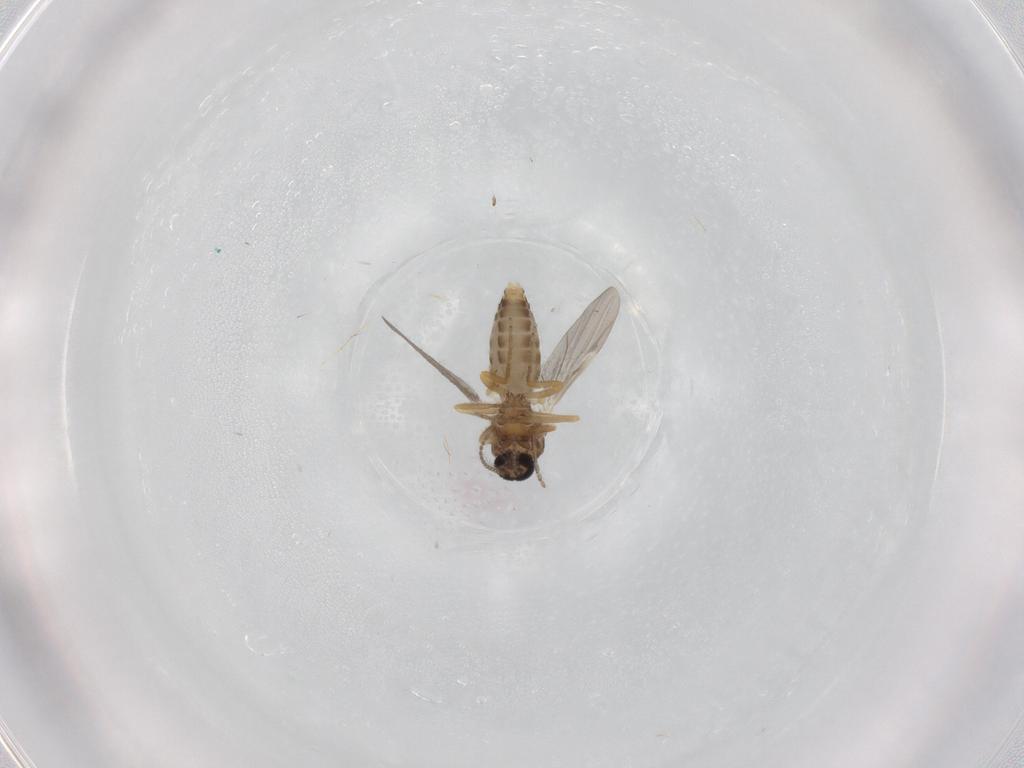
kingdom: Animalia
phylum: Arthropoda
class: Insecta
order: Diptera
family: Ceratopogonidae
